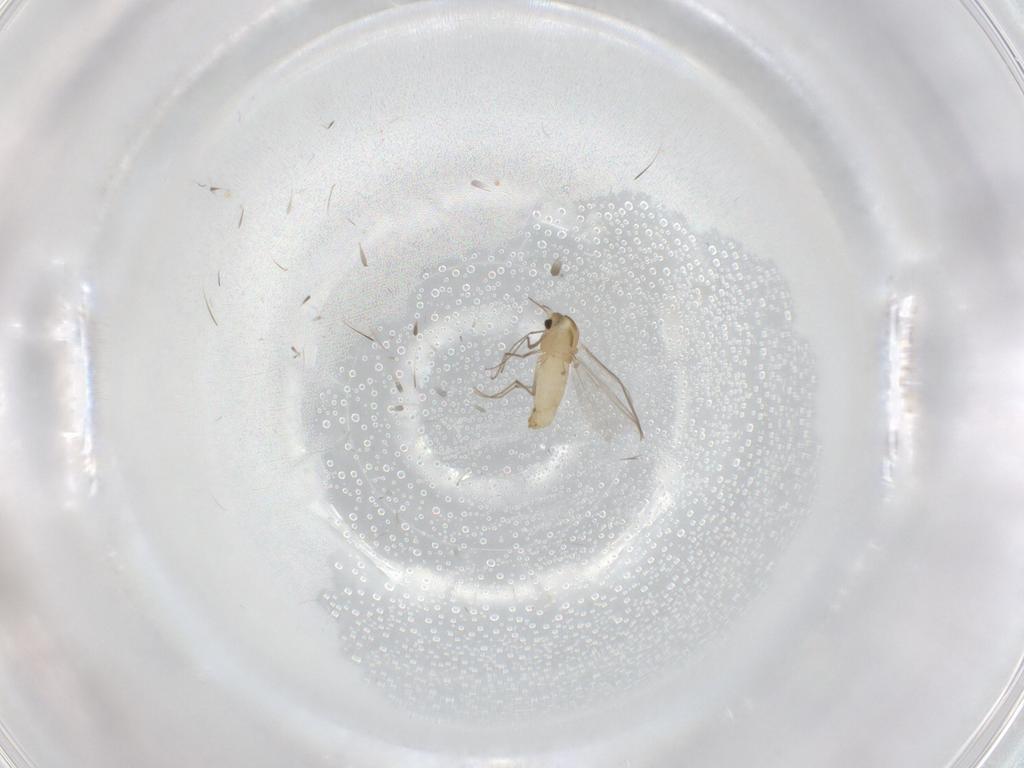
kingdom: Animalia
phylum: Arthropoda
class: Insecta
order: Diptera
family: Chironomidae
